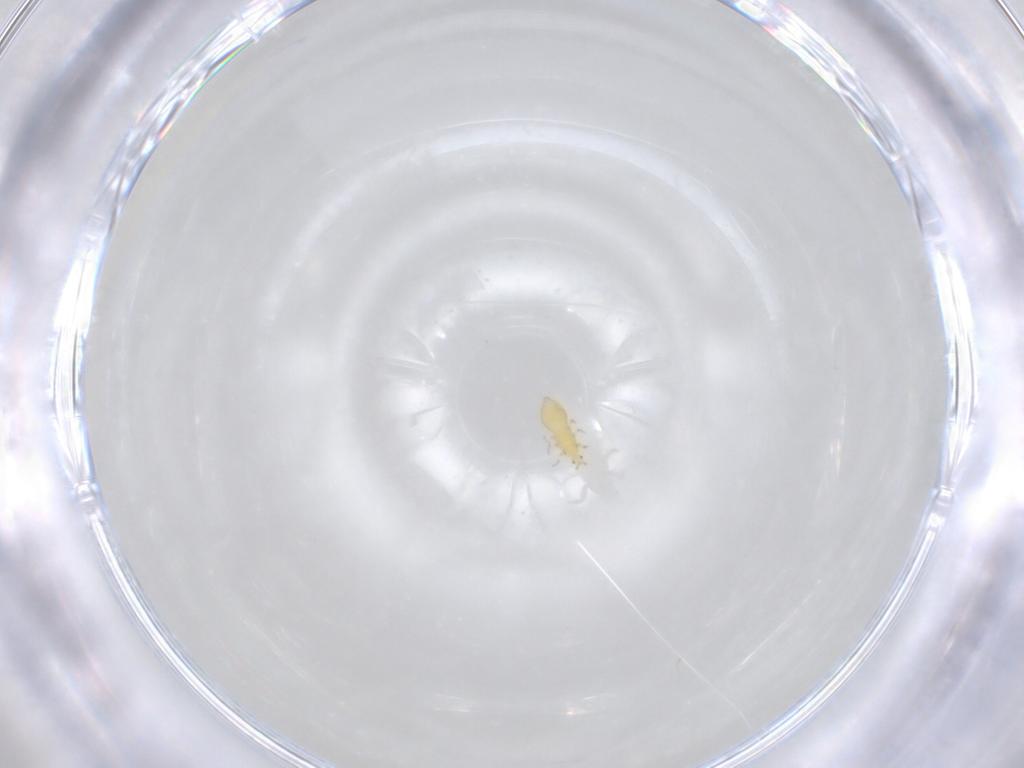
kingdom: Animalia
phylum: Arthropoda
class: Insecta
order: Thysanoptera
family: Thripidae
